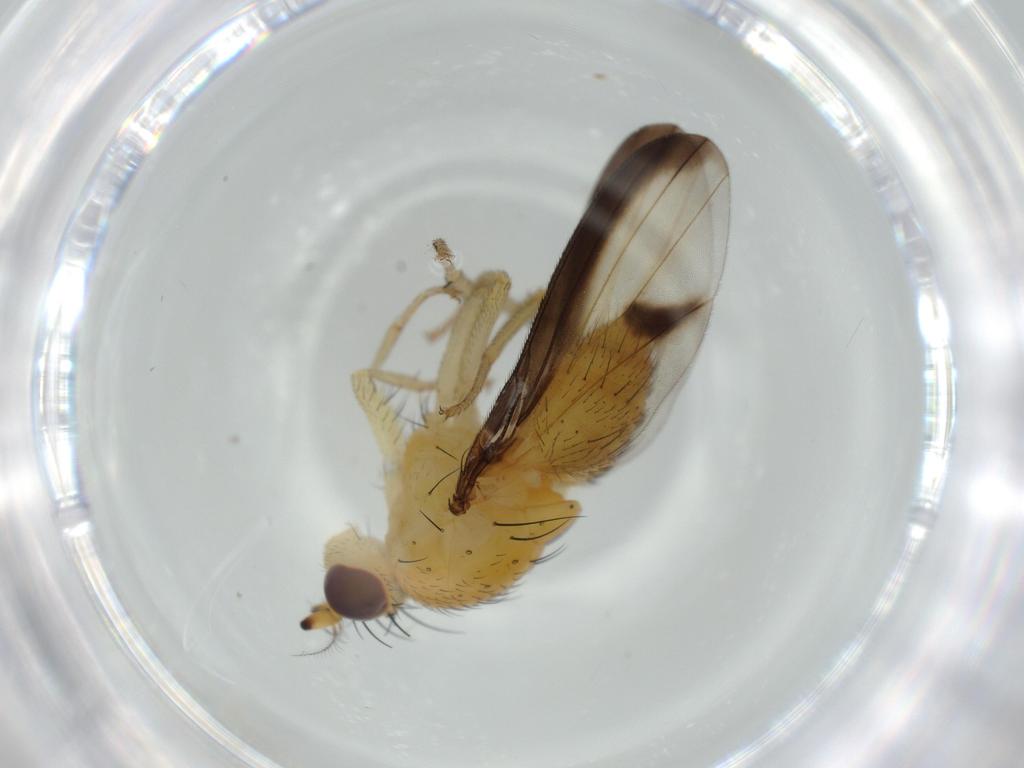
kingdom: Animalia
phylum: Arthropoda
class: Insecta
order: Diptera
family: Lauxaniidae
